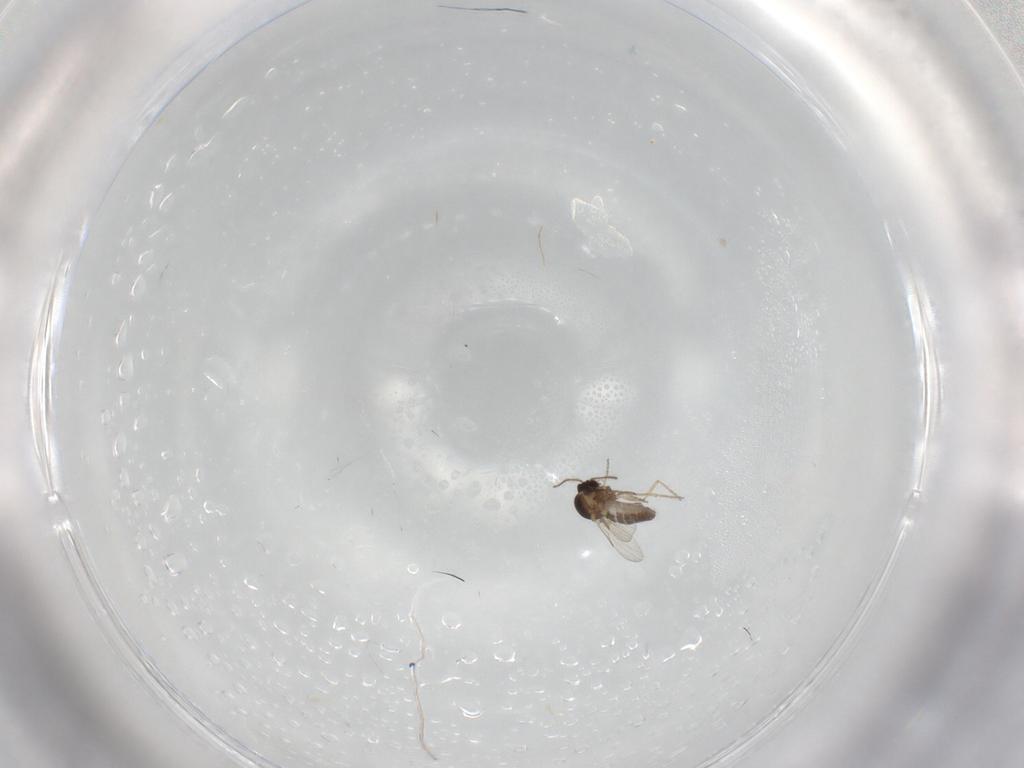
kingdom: Animalia
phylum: Arthropoda
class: Insecta
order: Diptera
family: Ceratopogonidae
